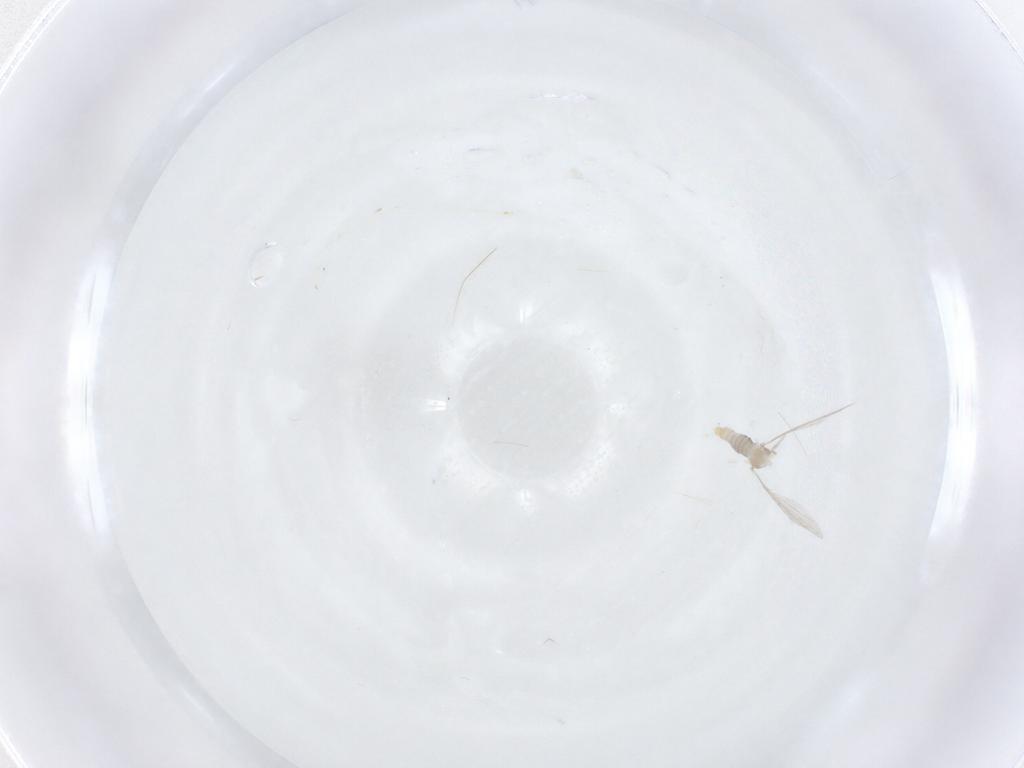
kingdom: Animalia
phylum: Arthropoda
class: Insecta
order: Diptera
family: Cecidomyiidae
